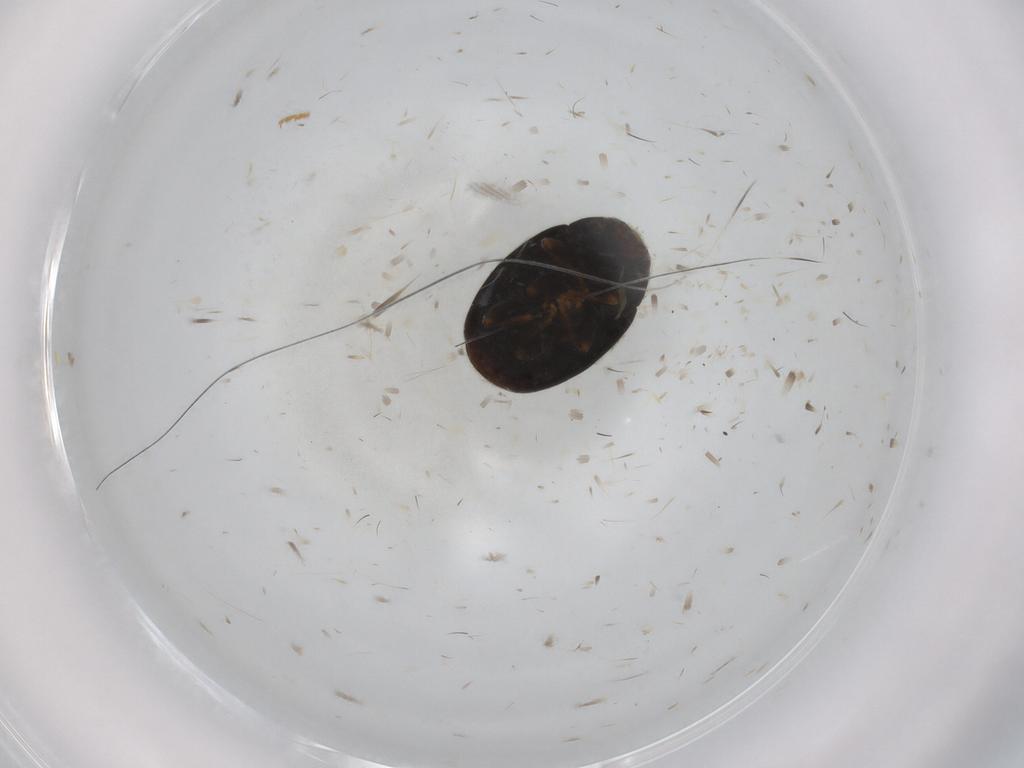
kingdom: Animalia
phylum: Arthropoda
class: Insecta
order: Coleoptera
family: Coccinellidae
